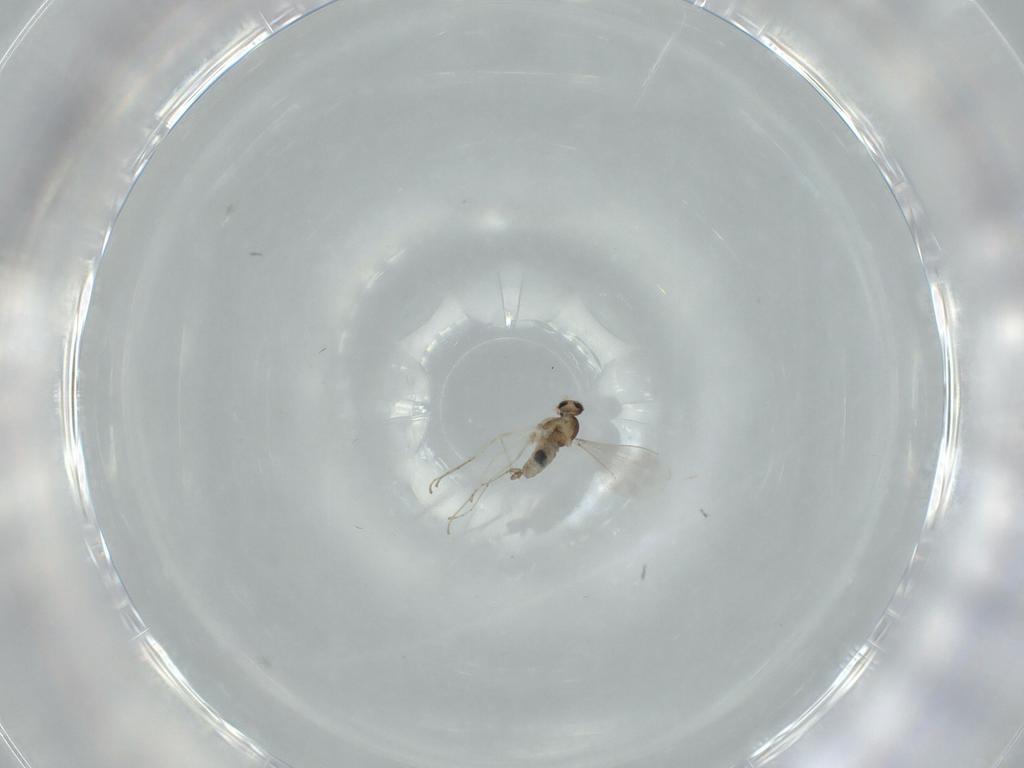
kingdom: Animalia
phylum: Arthropoda
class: Insecta
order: Diptera
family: Cecidomyiidae
